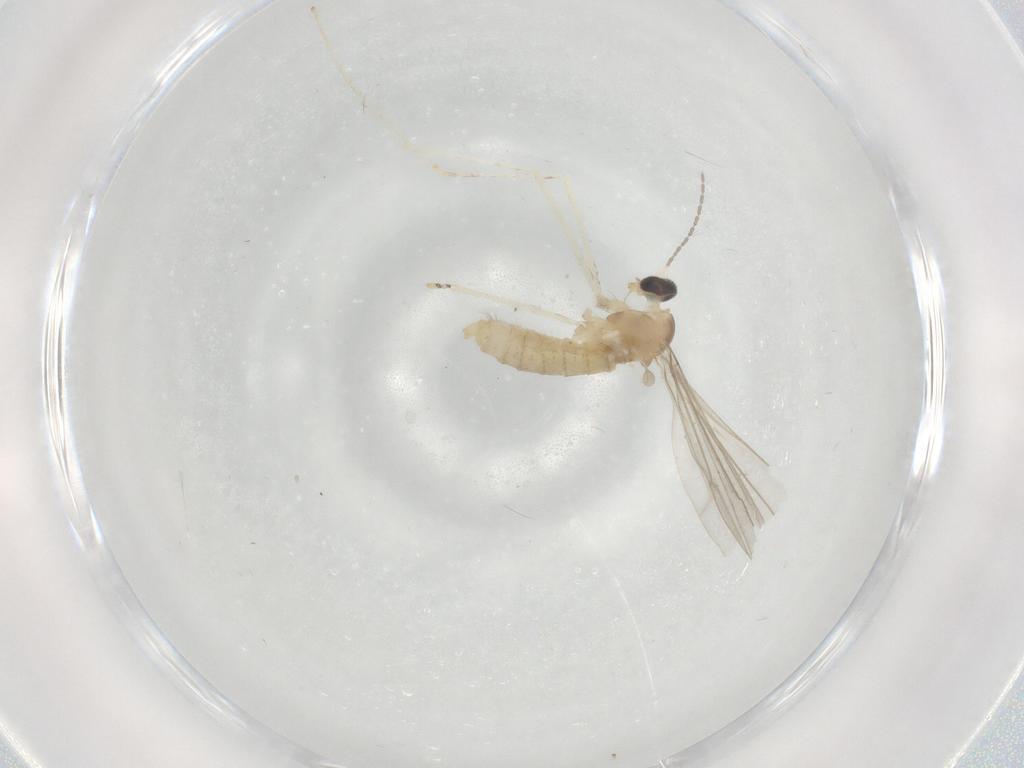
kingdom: Animalia
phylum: Arthropoda
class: Insecta
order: Diptera
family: Cecidomyiidae
